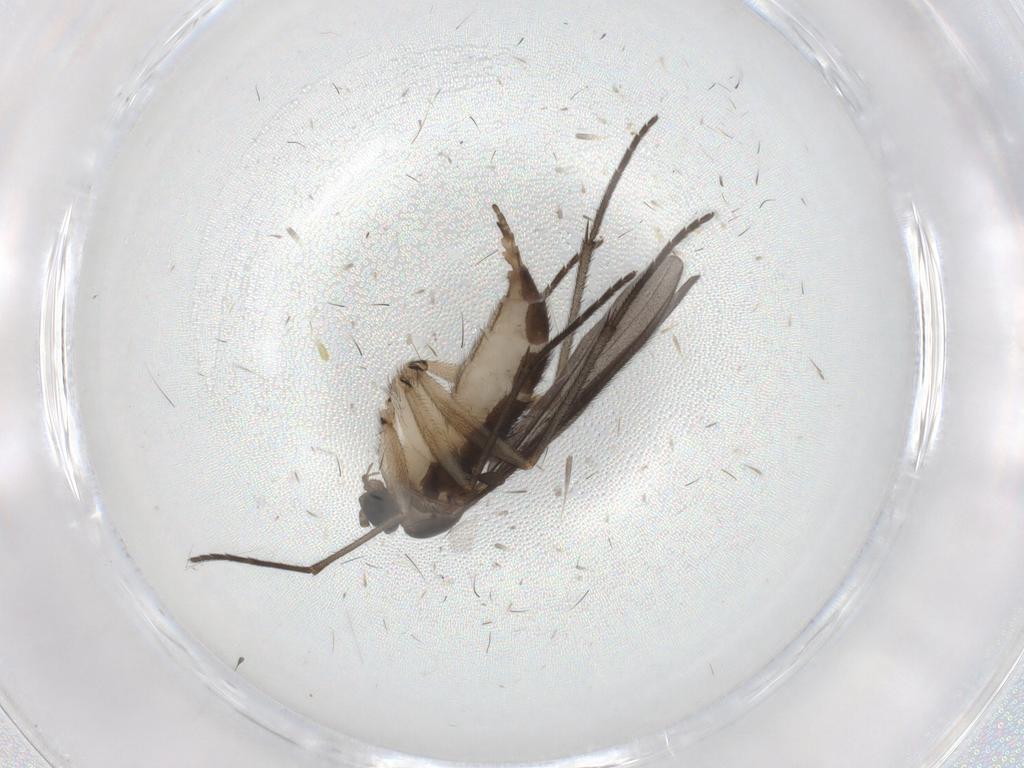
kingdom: Animalia
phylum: Arthropoda
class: Insecta
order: Diptera
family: Sciaridae
